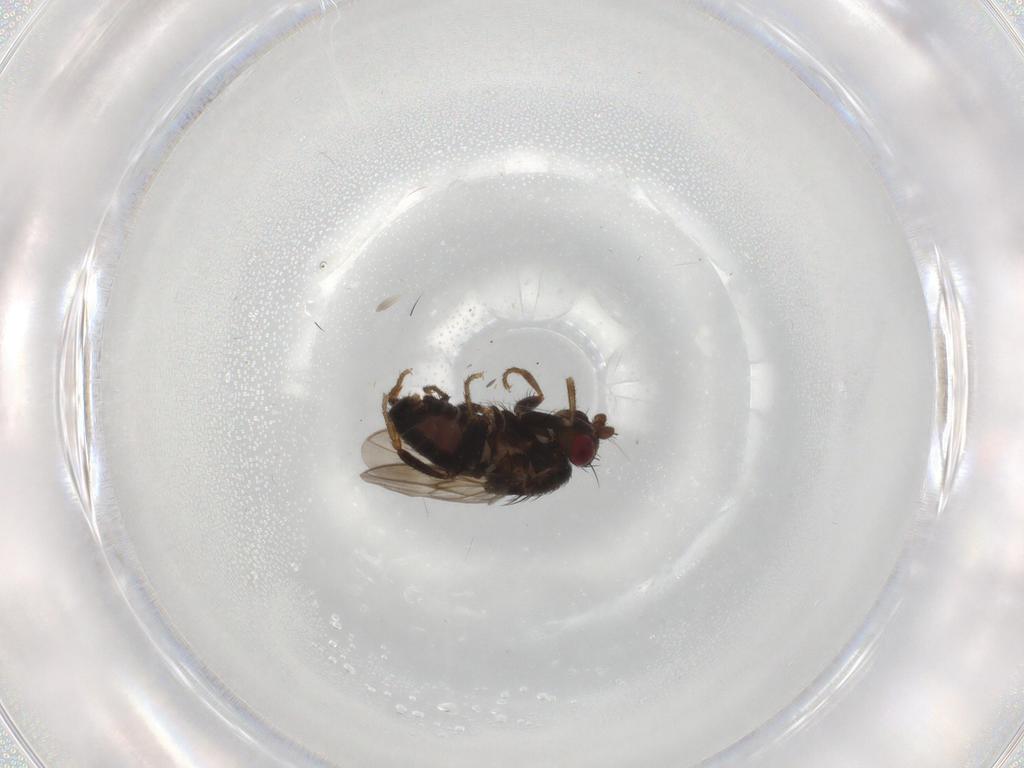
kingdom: Animalia
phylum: Arthropoda
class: Insecta
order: Diptera
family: Sphaeroceridae
